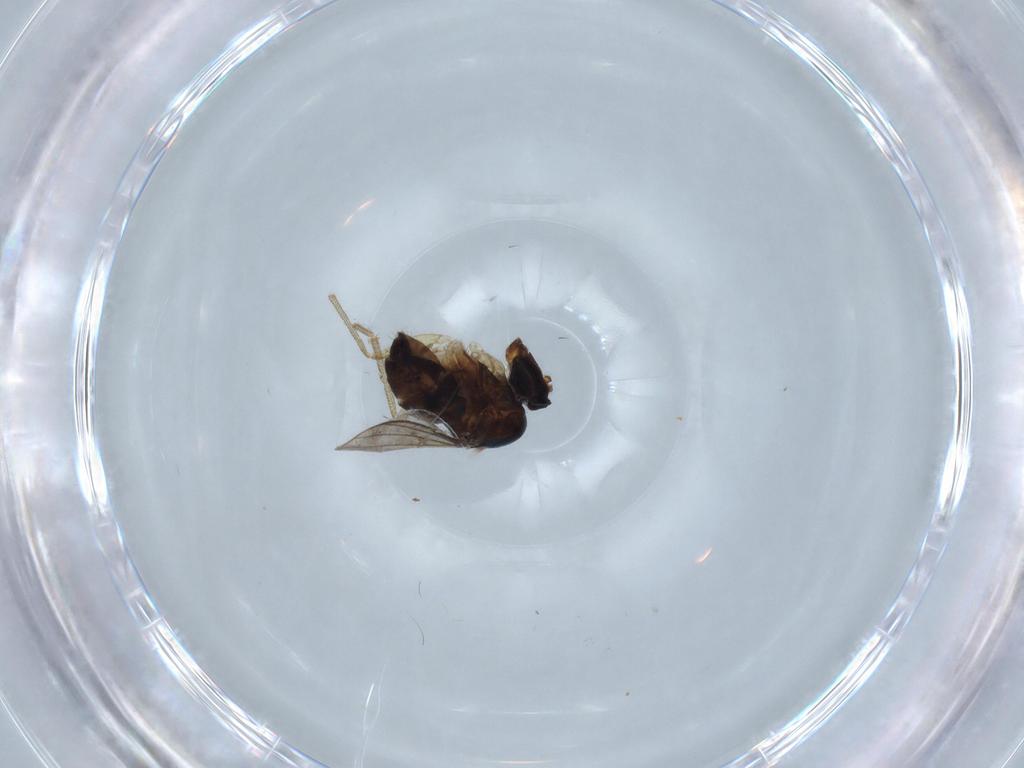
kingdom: Animalia
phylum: Arthropoda
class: Insecta
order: Diptera
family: Dolichopodidae
